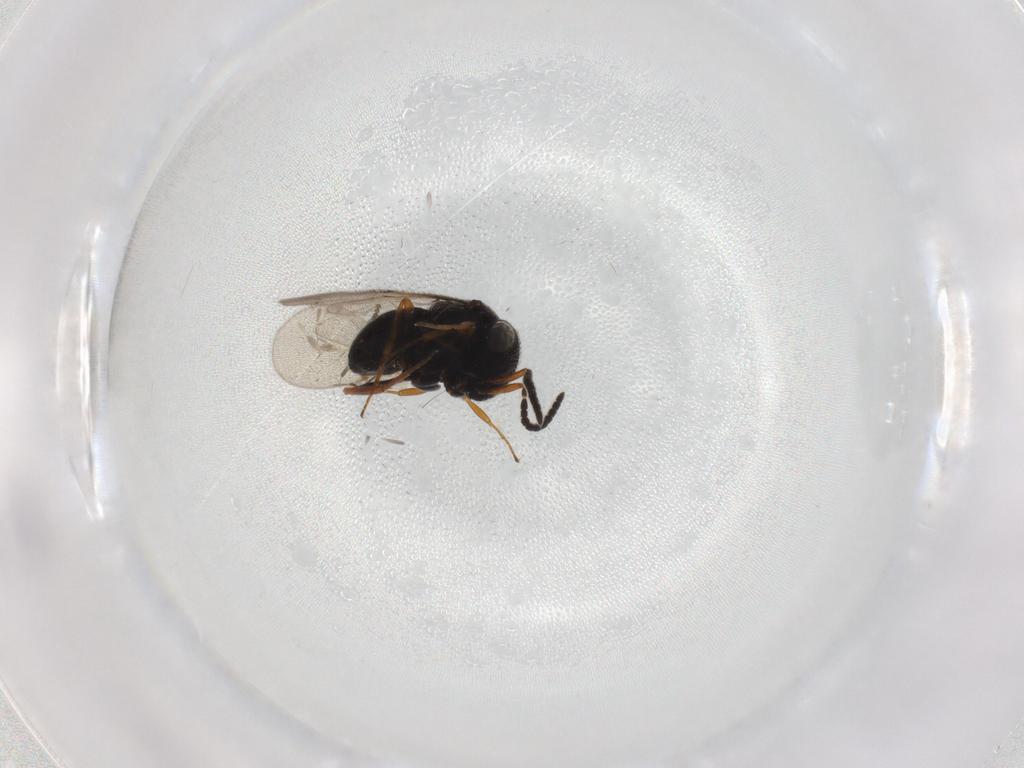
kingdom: Animalia
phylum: Arthropoda
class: Insecta
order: Hymenoptera
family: Scelionidae
